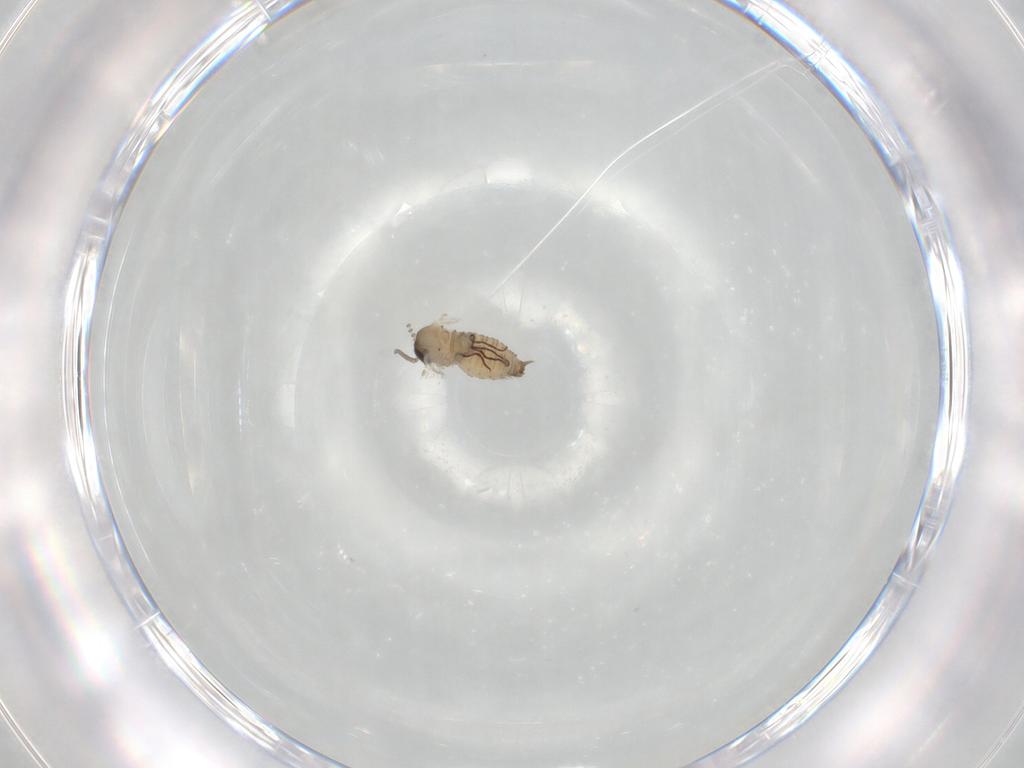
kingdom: Animalia
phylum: Arthropoda
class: Insecta
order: Diptera
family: Psychodidae
